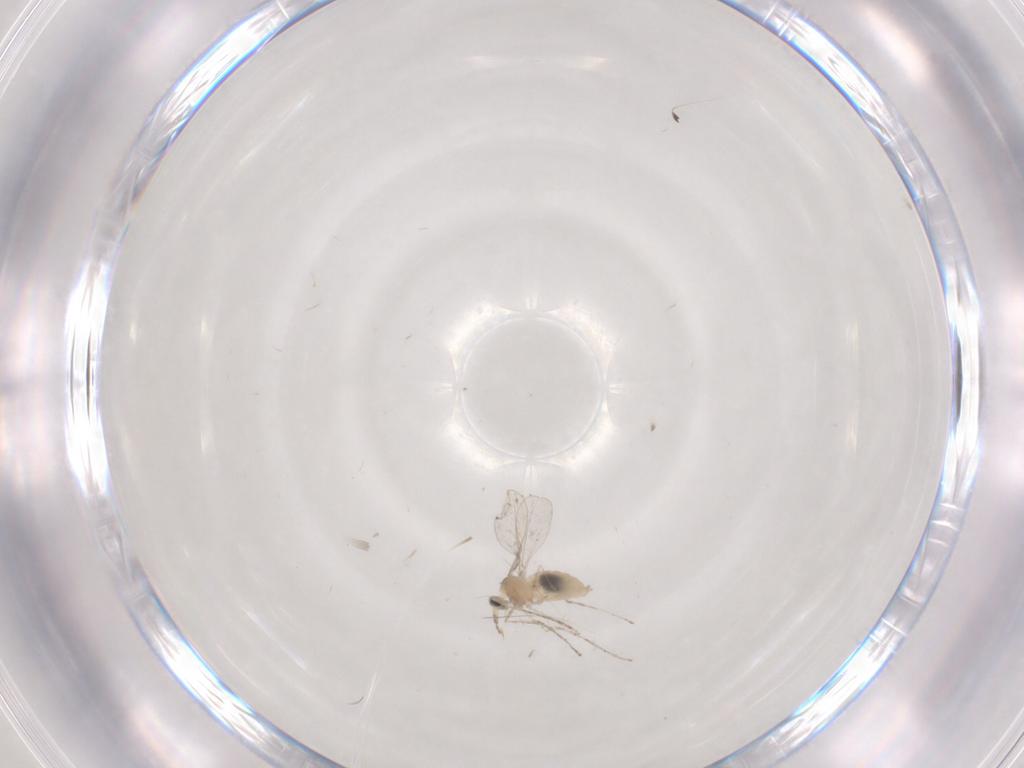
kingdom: Animalia
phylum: Arthropoda
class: Insecta
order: Diptera
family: Cecidomyiidae
